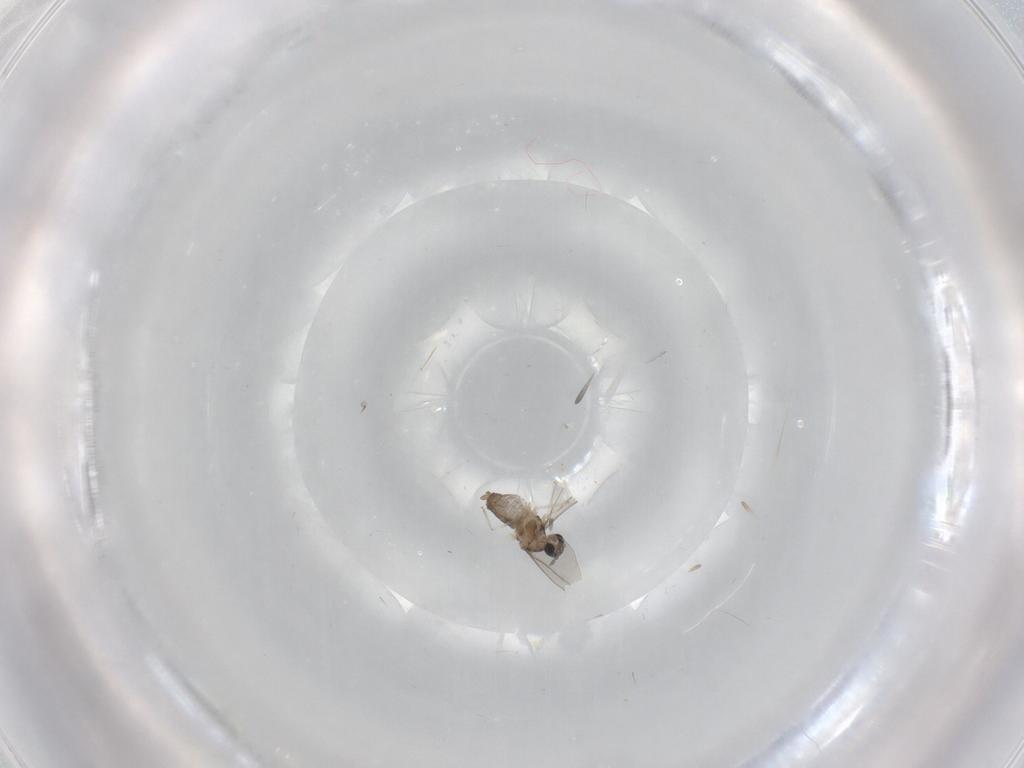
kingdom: Animalia
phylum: Arthropoda
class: Insecta
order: Diptera
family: Cecidomyiidae
